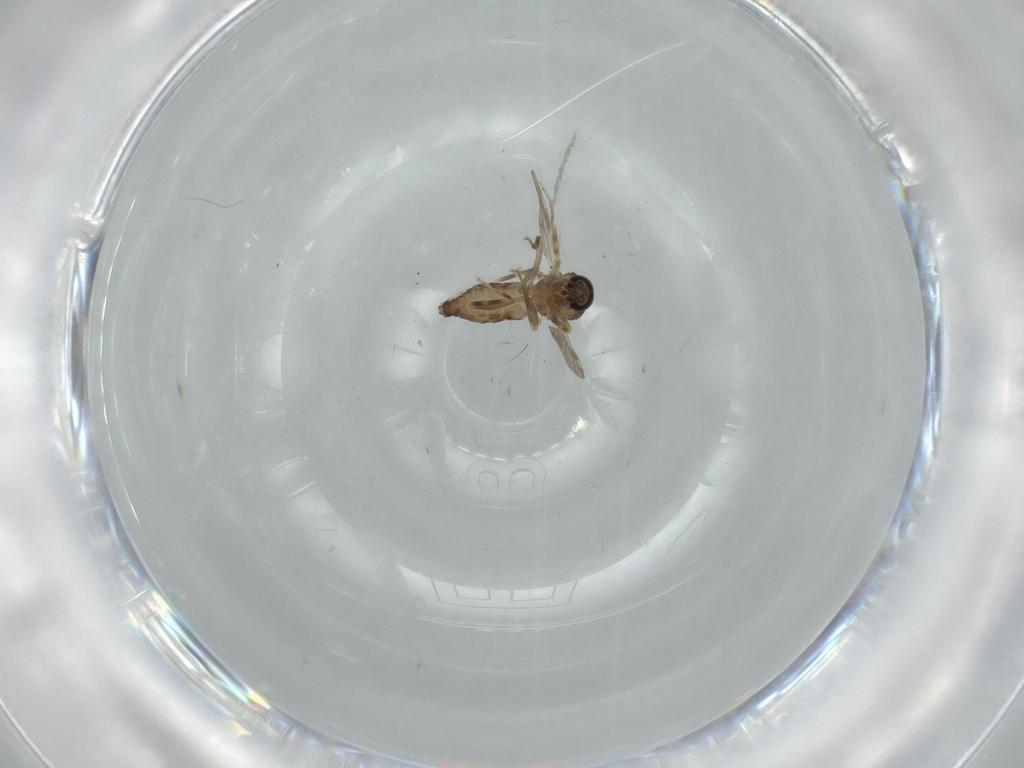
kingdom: Animalia
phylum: Arthropoda
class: Insecta
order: Diptera
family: Ceratopogonidae
